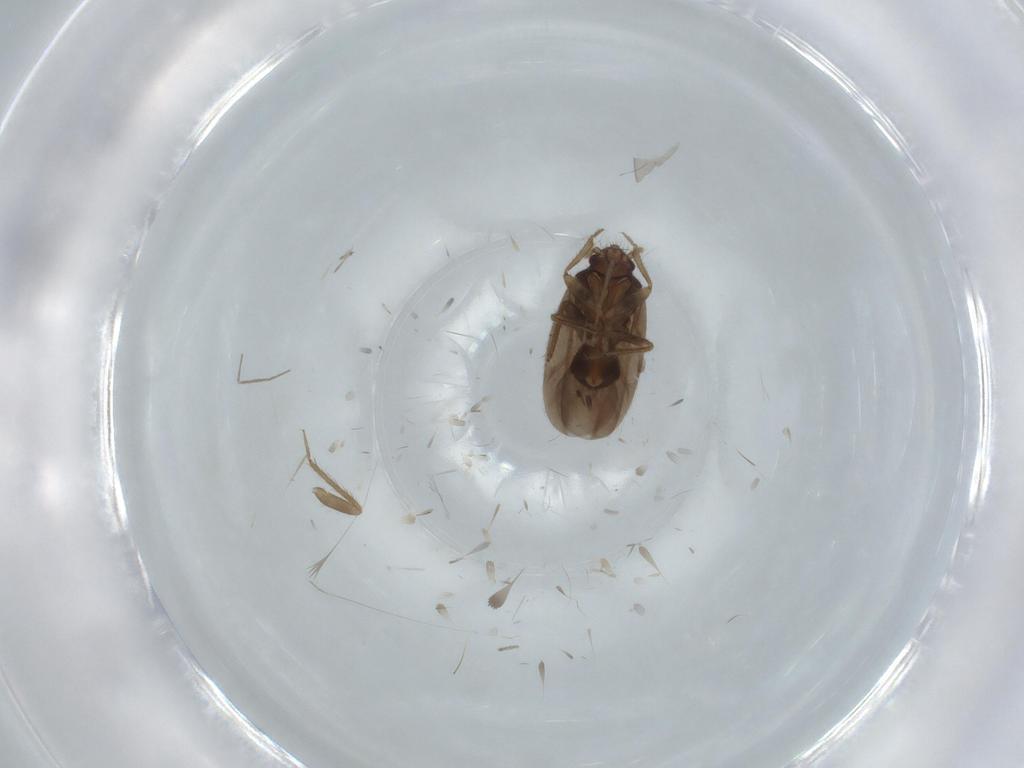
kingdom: Animalia
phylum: Arthropoda
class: Insecta
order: Hemiptera
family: Ceratocombidae
